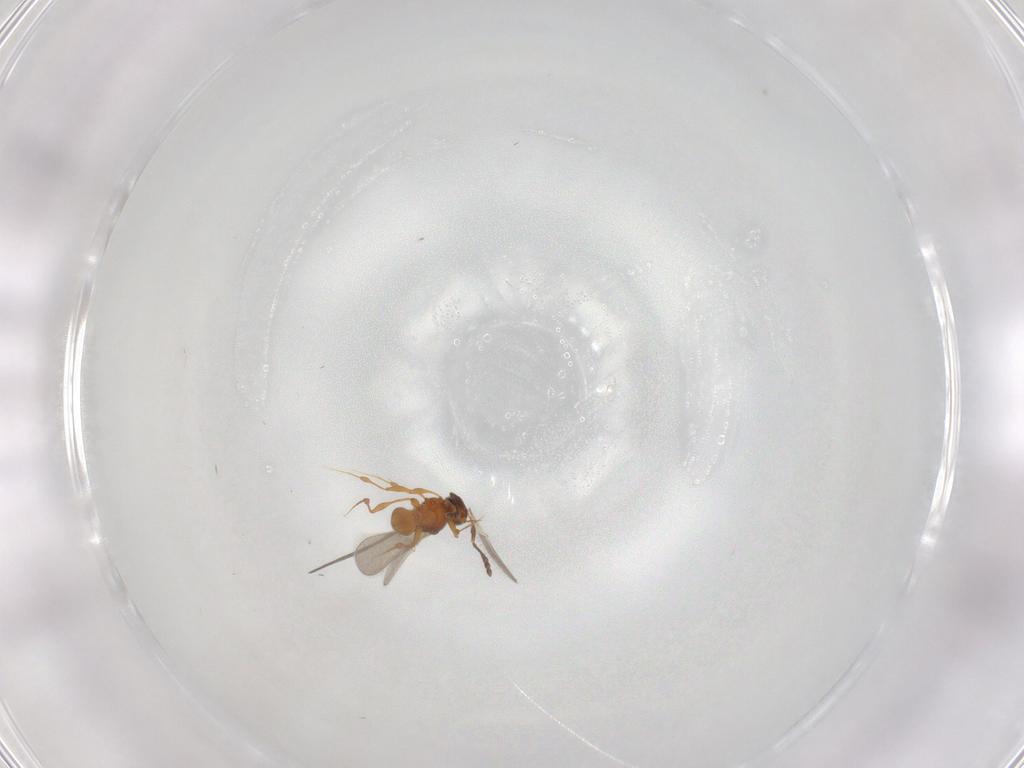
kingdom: Animalia
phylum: Arthropoda
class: Insecta
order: Hymenoptera
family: Platygastridae
